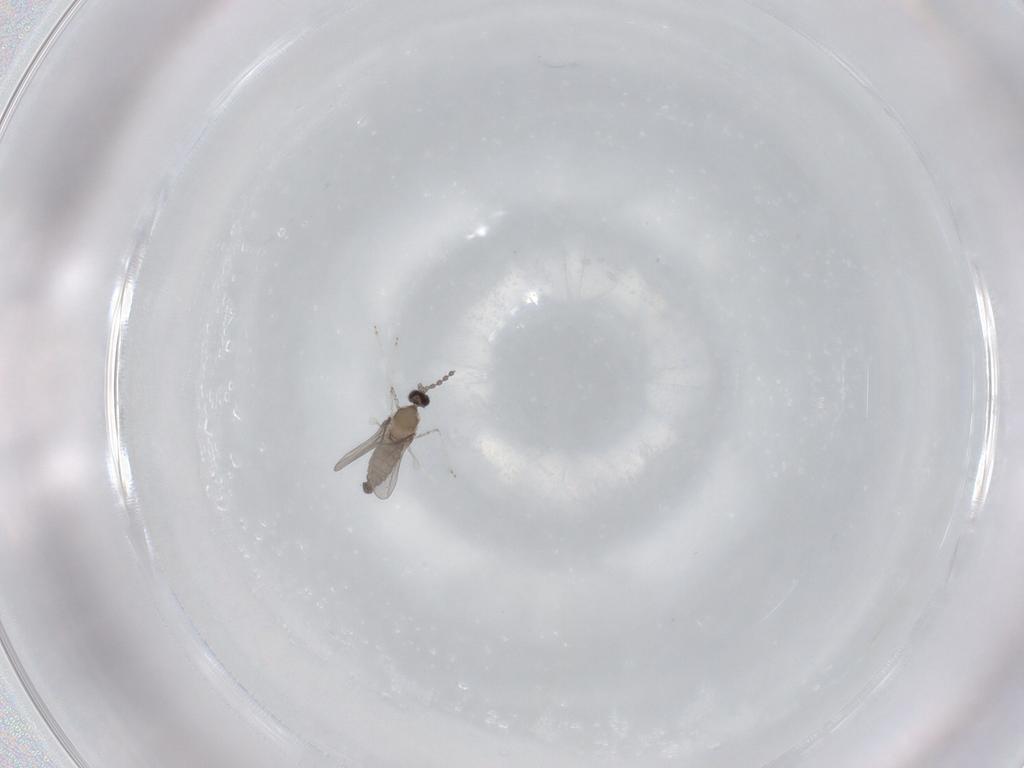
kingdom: Animalia
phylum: Arthropoda
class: Insecta
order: Diptera
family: Cecidomyiidae
